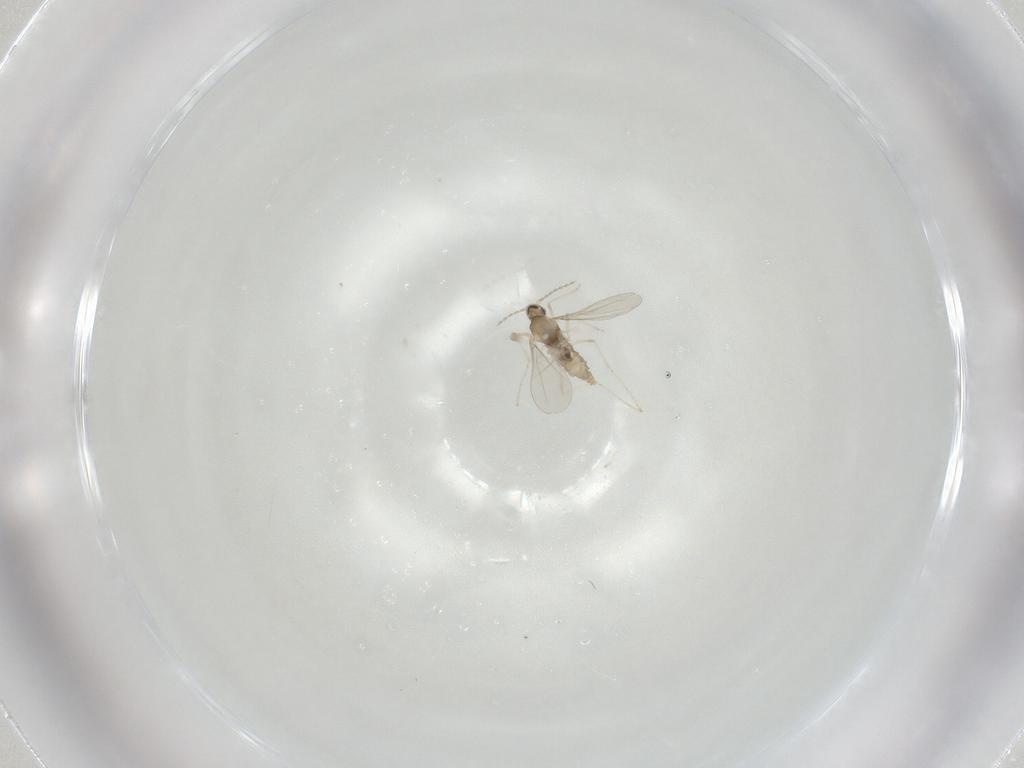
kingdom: Animalia
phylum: Arthropoda
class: Insecta
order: Diptera
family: Cecidomyiidae
